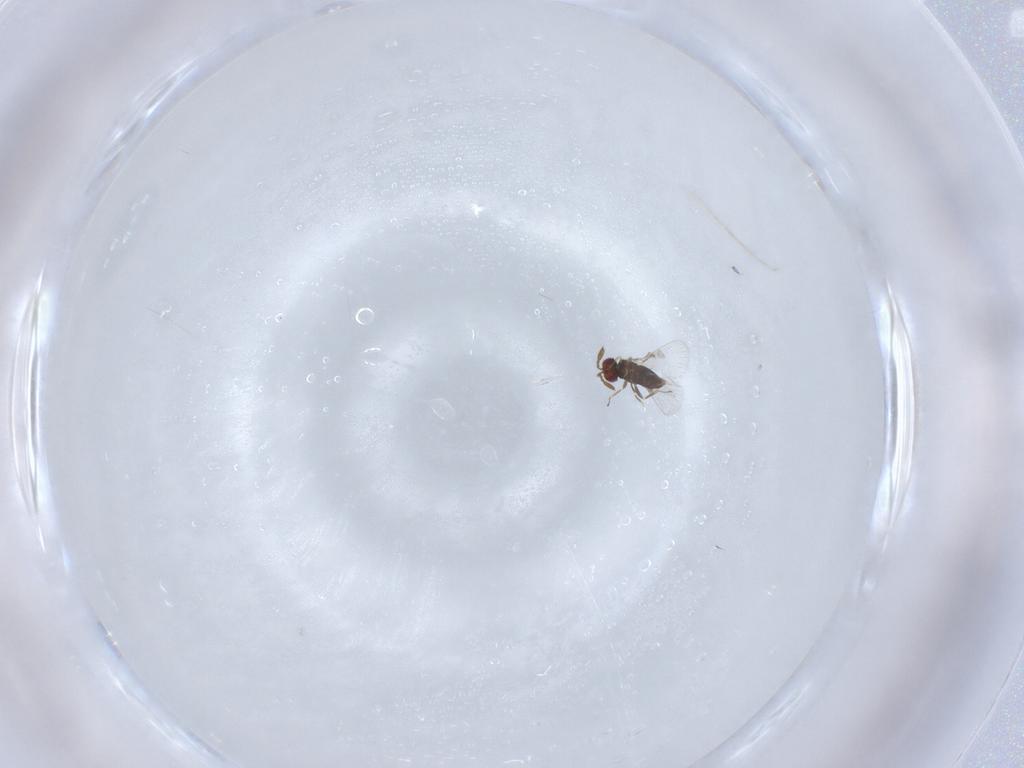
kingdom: Animalia
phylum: Arthropoda
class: Insecta
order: Hymenoptera
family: Agaonidae
